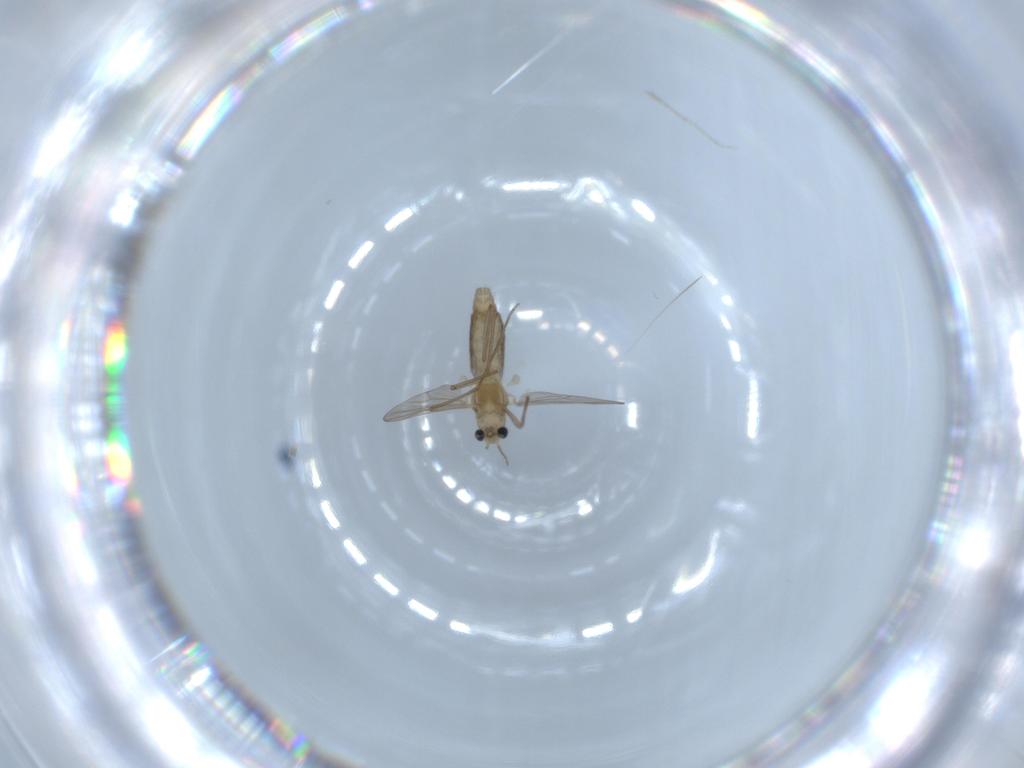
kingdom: Animalia
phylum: Arthropoda
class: Insecta
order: Diptera
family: Chironomidae
